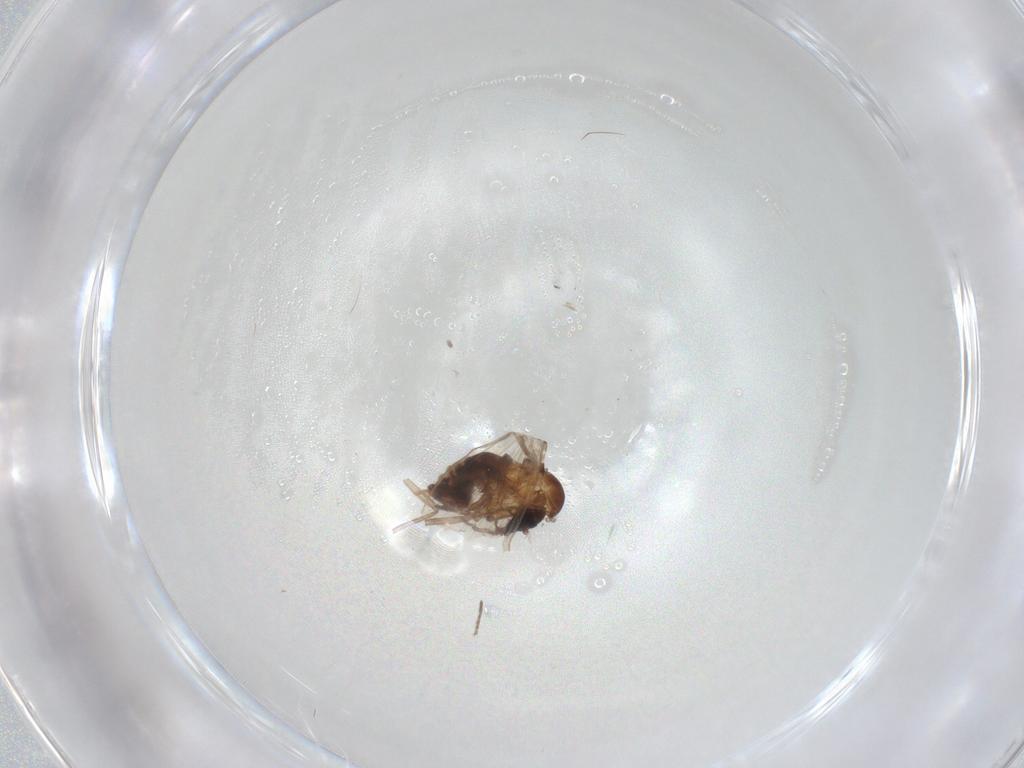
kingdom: Animalia
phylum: Arthropoda
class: Insecta
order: Diptera
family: Psychodidae
